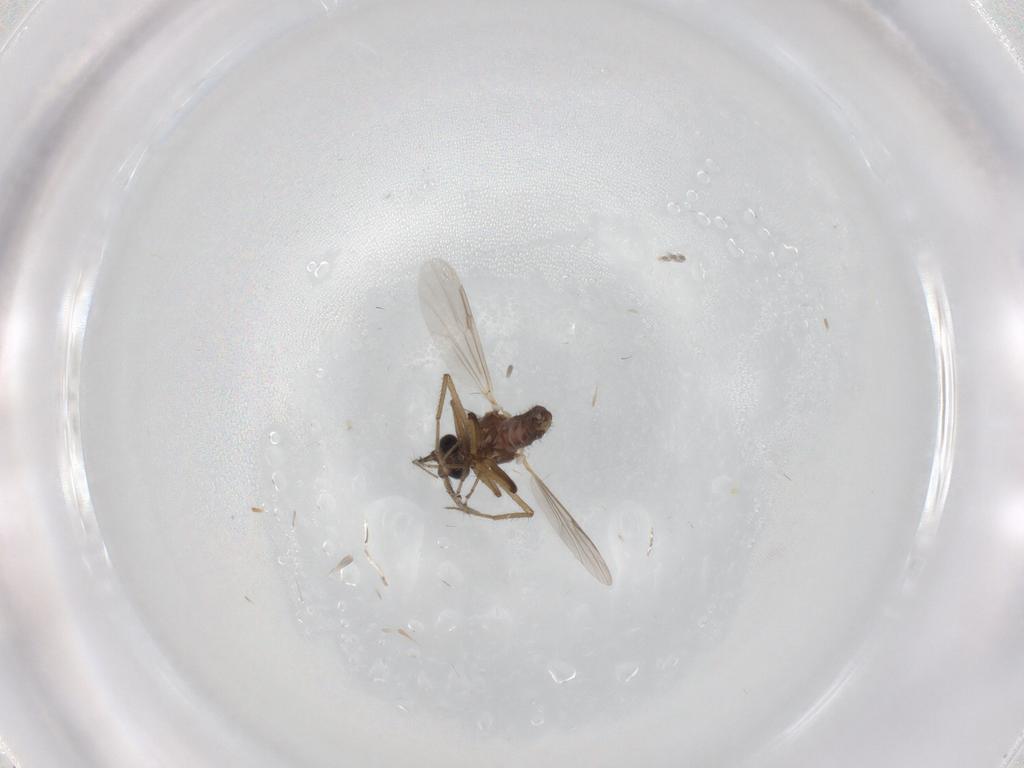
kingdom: Animalia
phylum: Arthropoda
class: Insecta
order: Diptera
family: Ceratopogonidae
